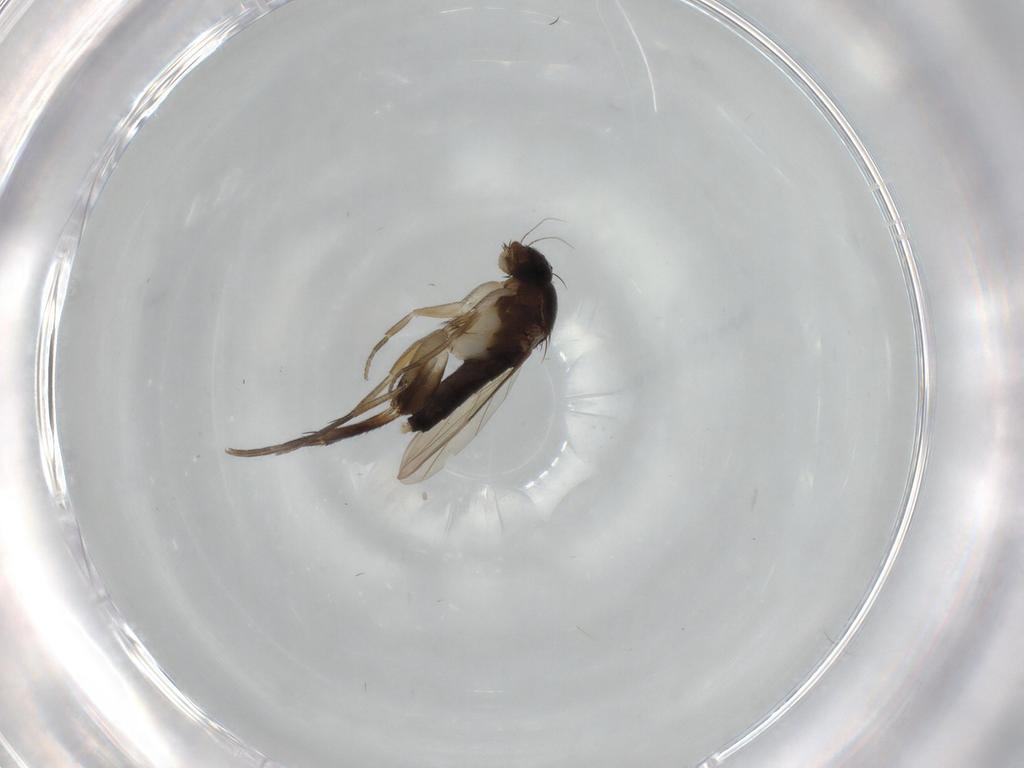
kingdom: Animalia
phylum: Arthropoda
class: Insecta
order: Diptera
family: Phoridae
